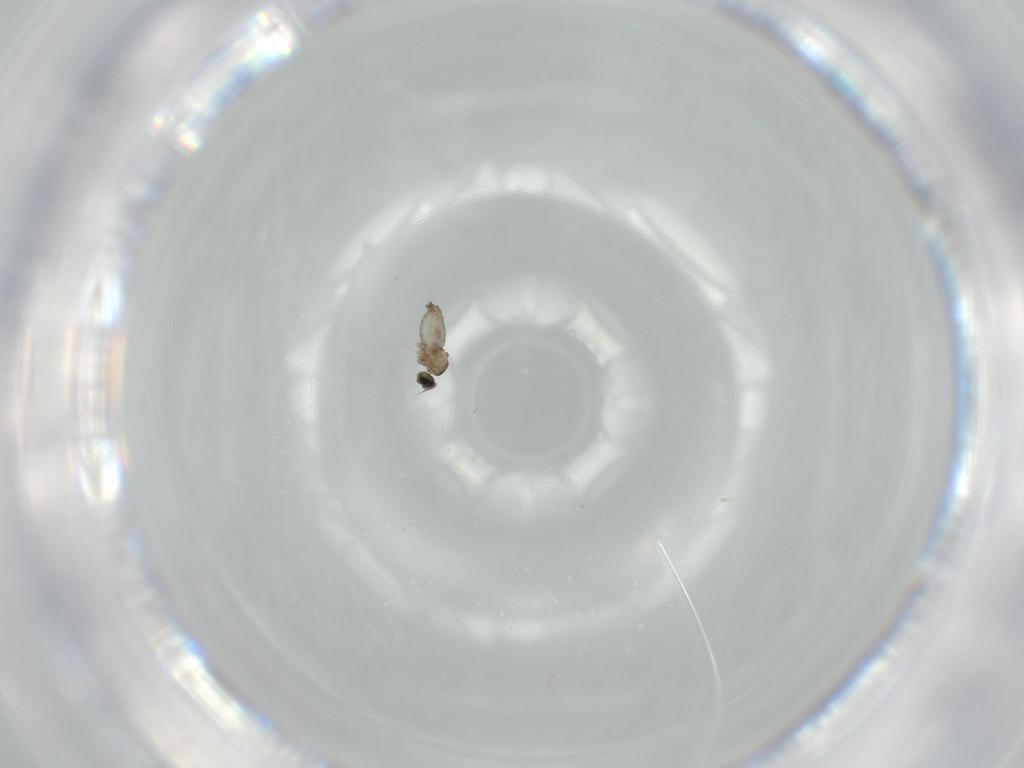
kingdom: Animalia
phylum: Arthropoda
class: Insecta
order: Diptera
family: Cecidomyiidae
